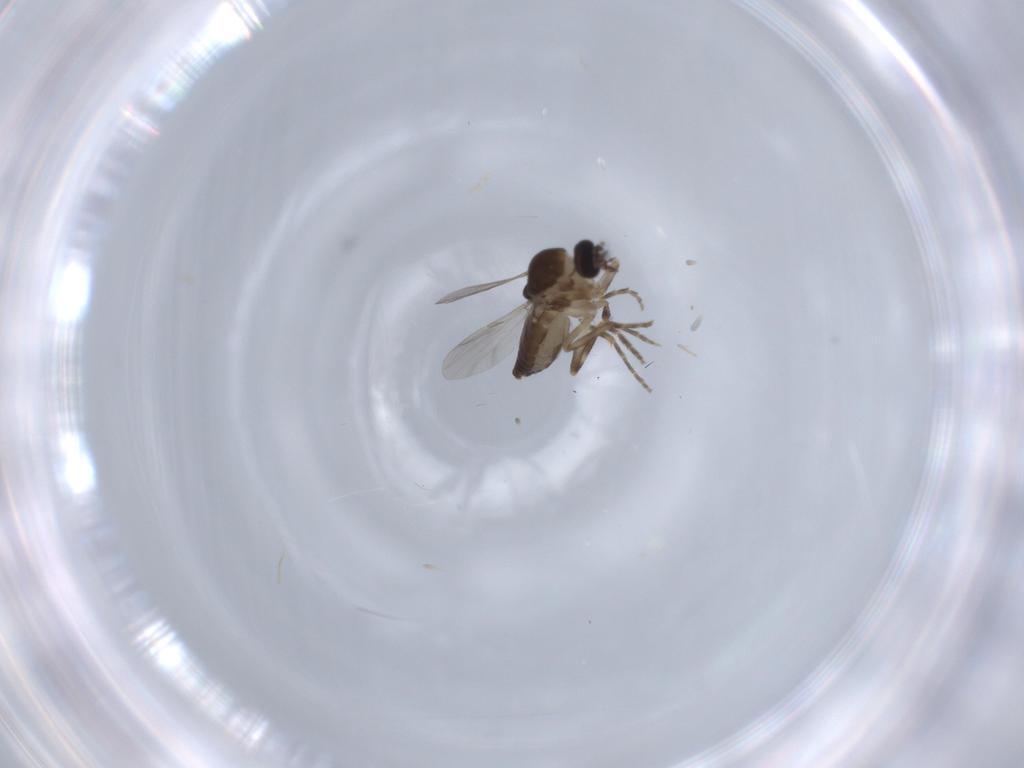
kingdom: Animalia
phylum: Arthropoda
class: Insecta
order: Diptera
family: Ceratopogonidae
